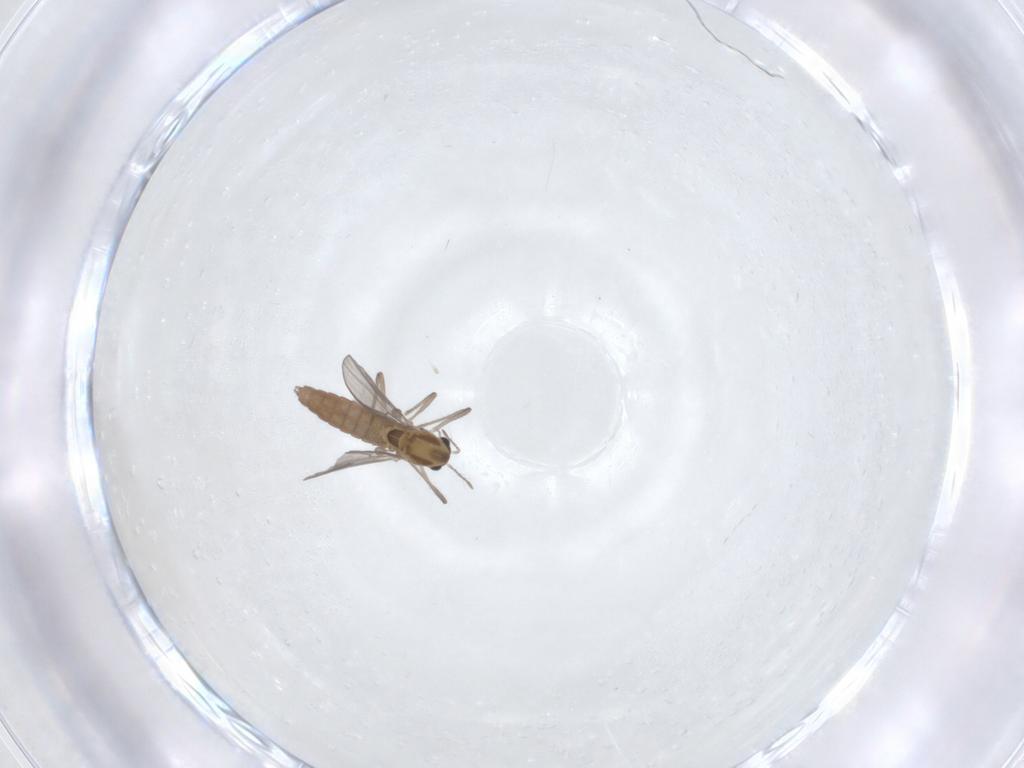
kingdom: Animalia
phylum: Arthropoda
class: Insecta
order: Diptera
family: Chironomidae
